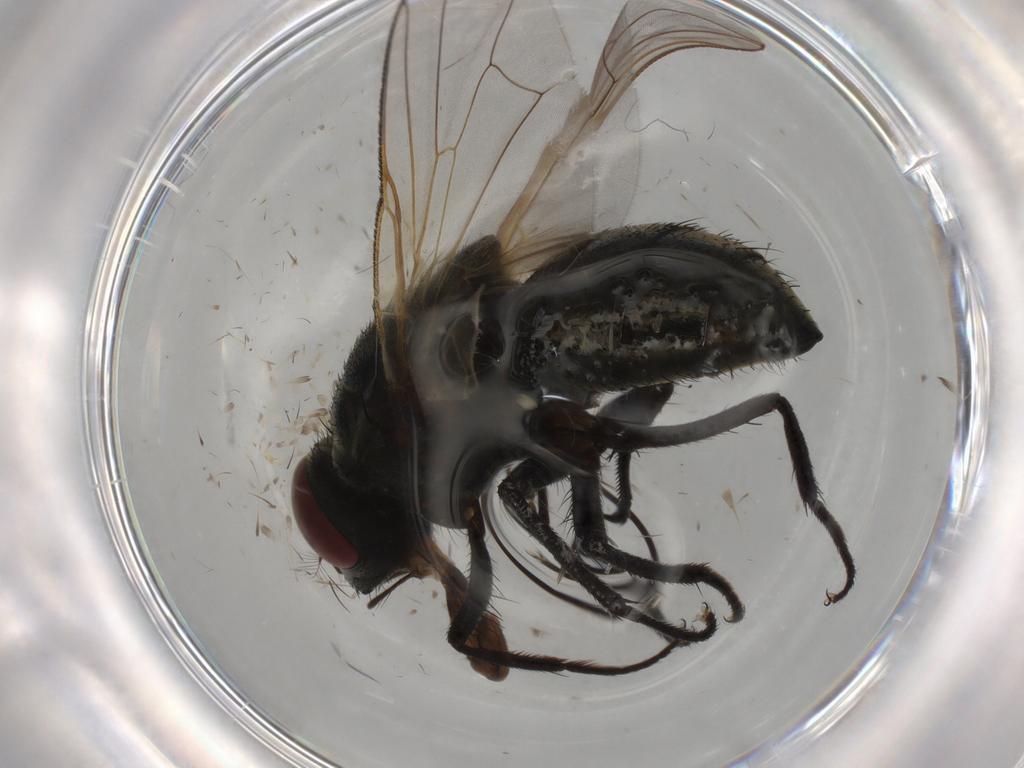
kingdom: Animalia
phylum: Arthropoda
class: Insecta
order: Diptera
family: Muscidae
